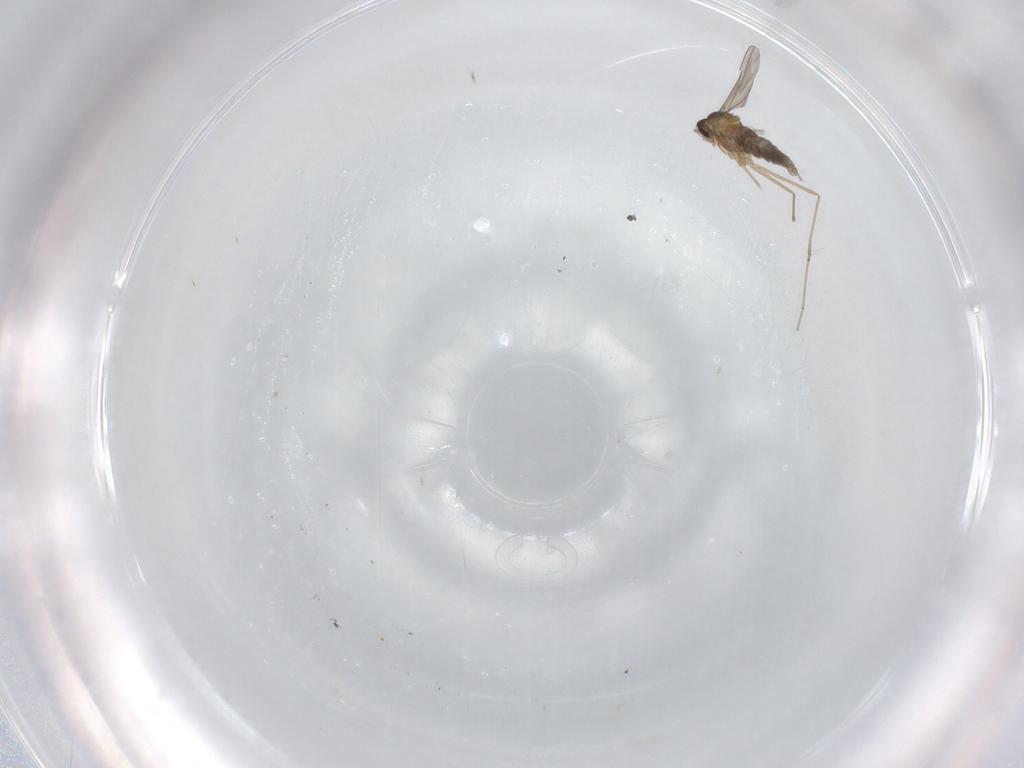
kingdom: Animalia
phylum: Arthropoda
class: Insecta
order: Diptera
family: Cecidomyiidae
